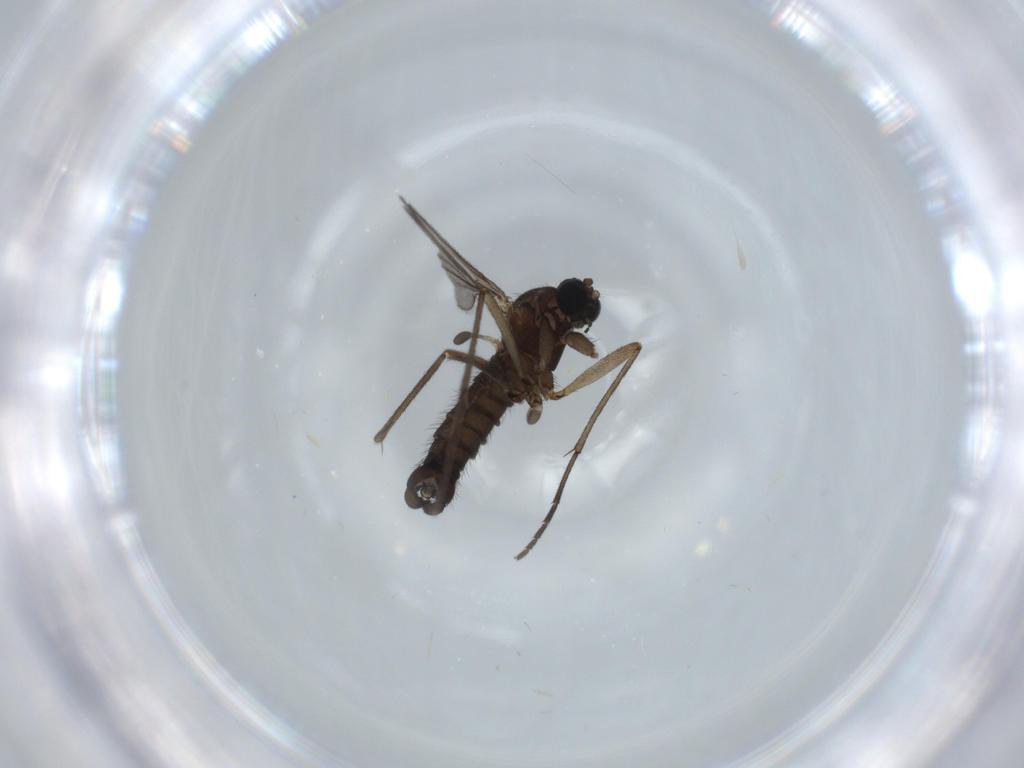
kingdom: Animalia
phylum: Arthropoda
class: Insecta
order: Diptera
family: Sciaridae
